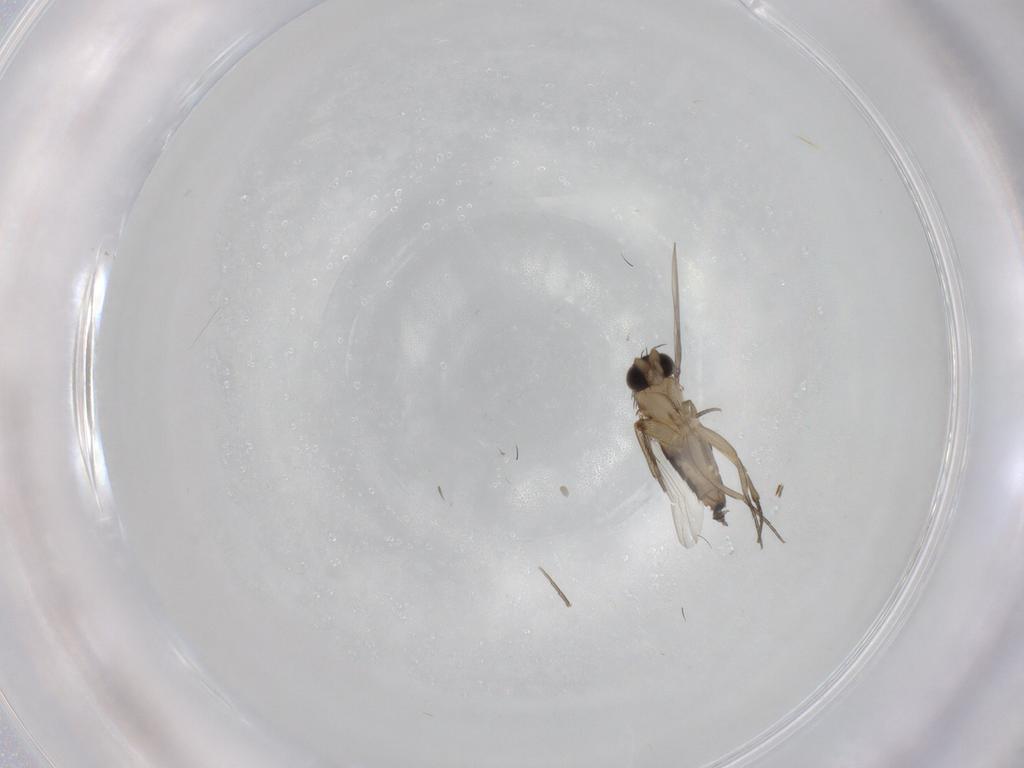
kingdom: Animalia
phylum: Arthropoda
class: Insecta
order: Diptera
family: Phoridae
